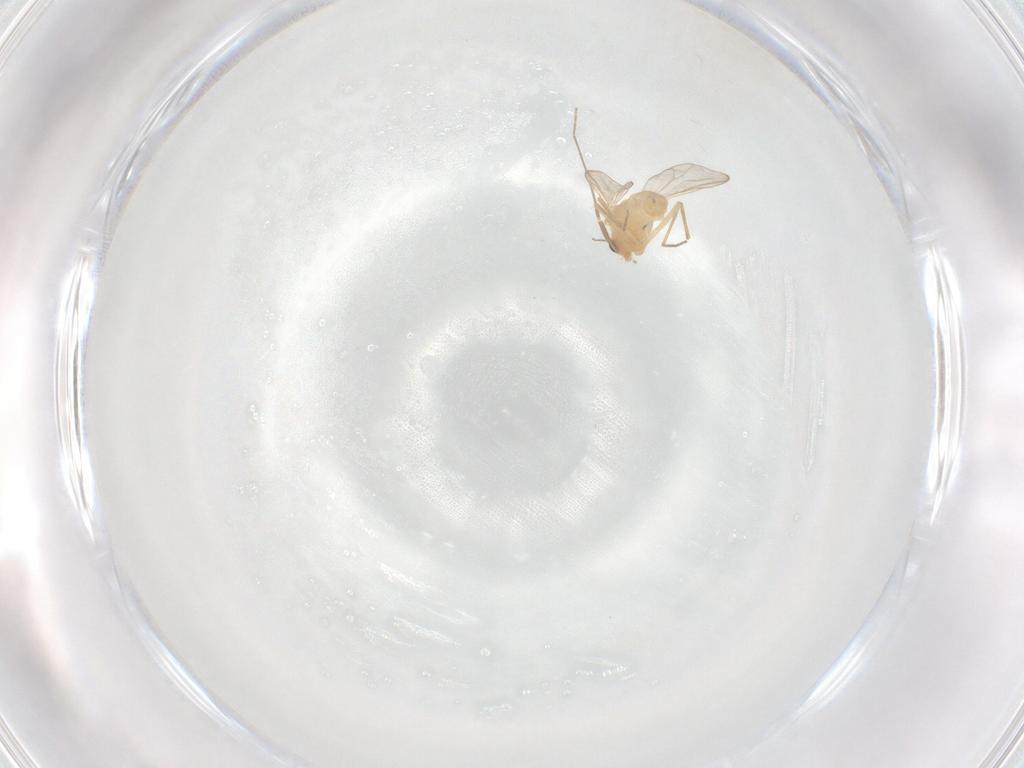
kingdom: Animalia
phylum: Arthropoda
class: Insecta
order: Diptera
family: Chironomidae
